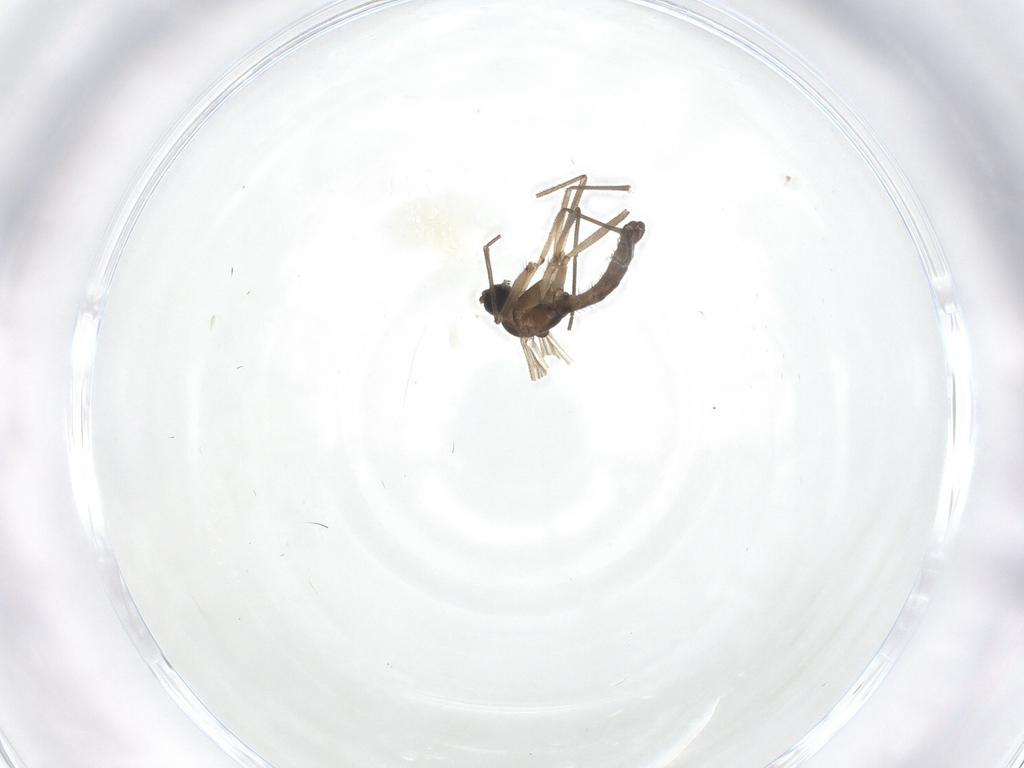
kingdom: Animalia
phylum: Arthropoda
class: Insecta
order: Diptera
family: Sciaridae
